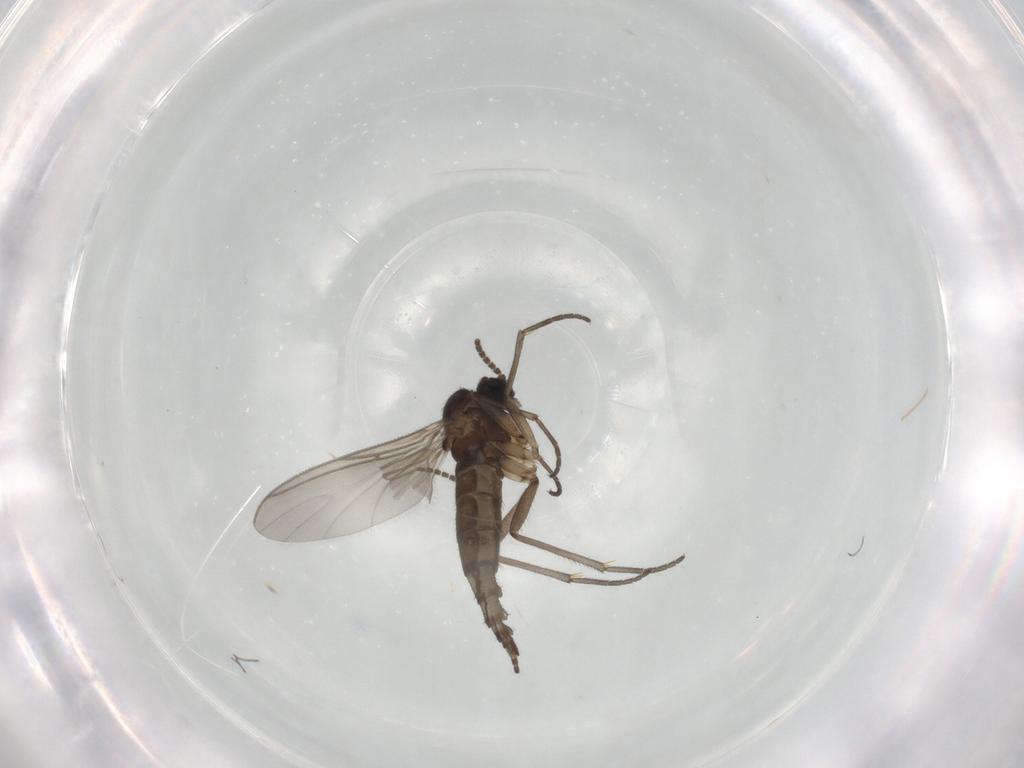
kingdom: Animalia
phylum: Arthropoda
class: Insecta
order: Diptera
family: Sciaridae
